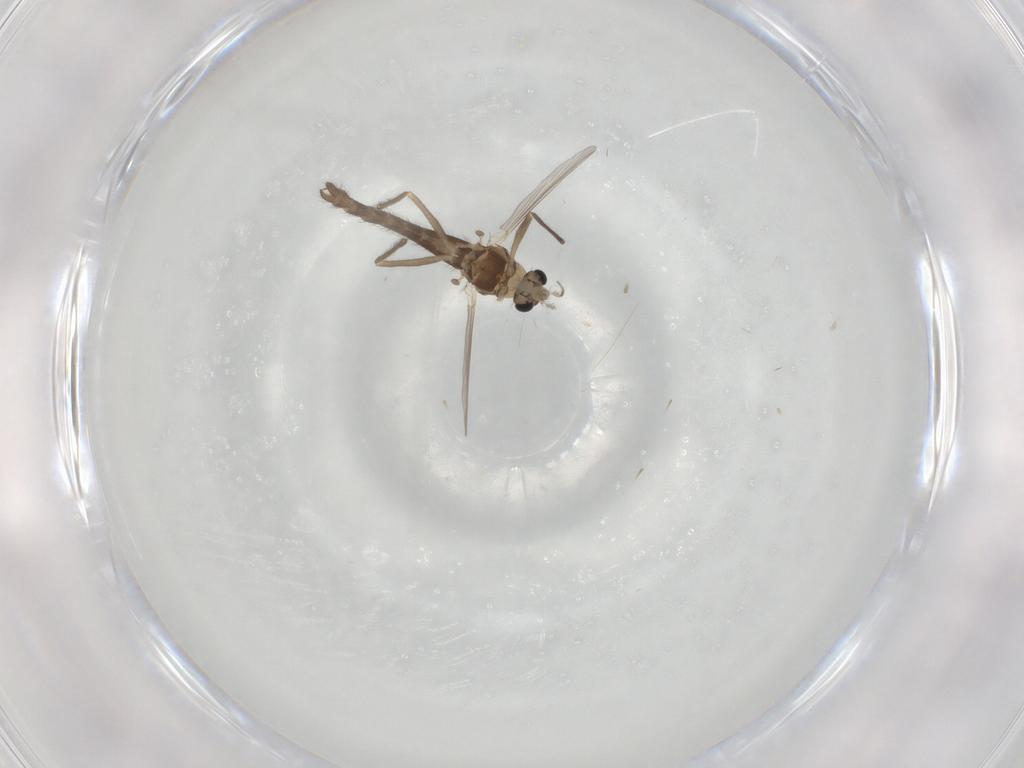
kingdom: Animalia
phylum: Arthropoda
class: Insecta
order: Diptera
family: Chironomidae
